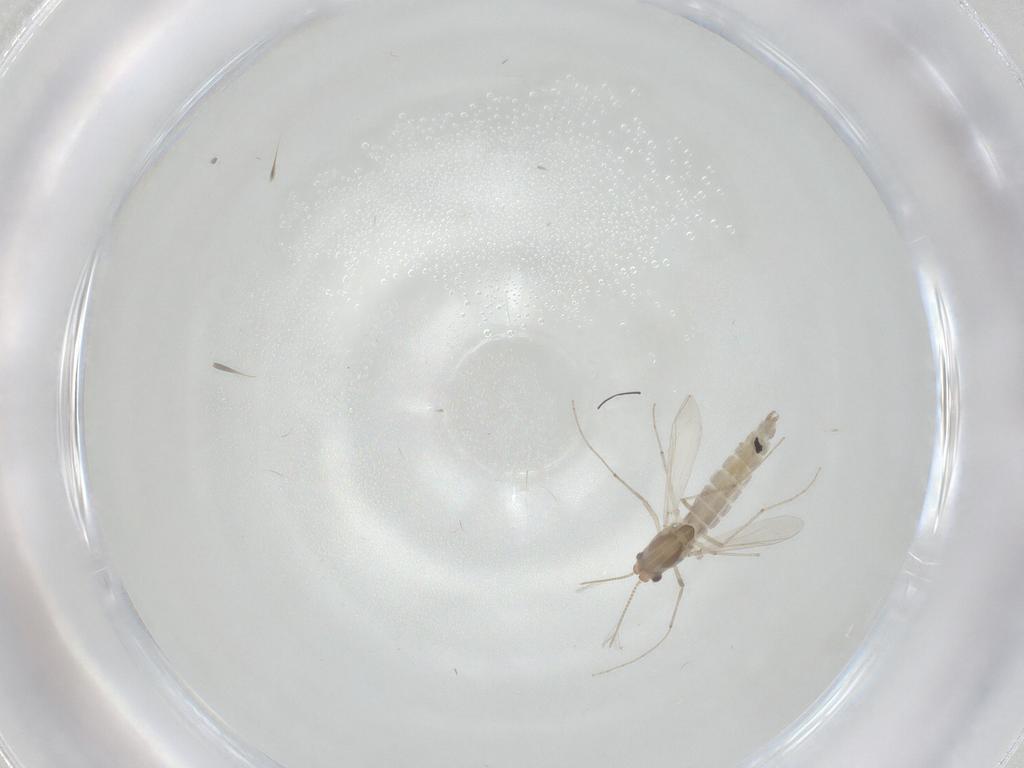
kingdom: Animalia
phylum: Arthropoda
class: Insecta
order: Diptera
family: Chironomidae
